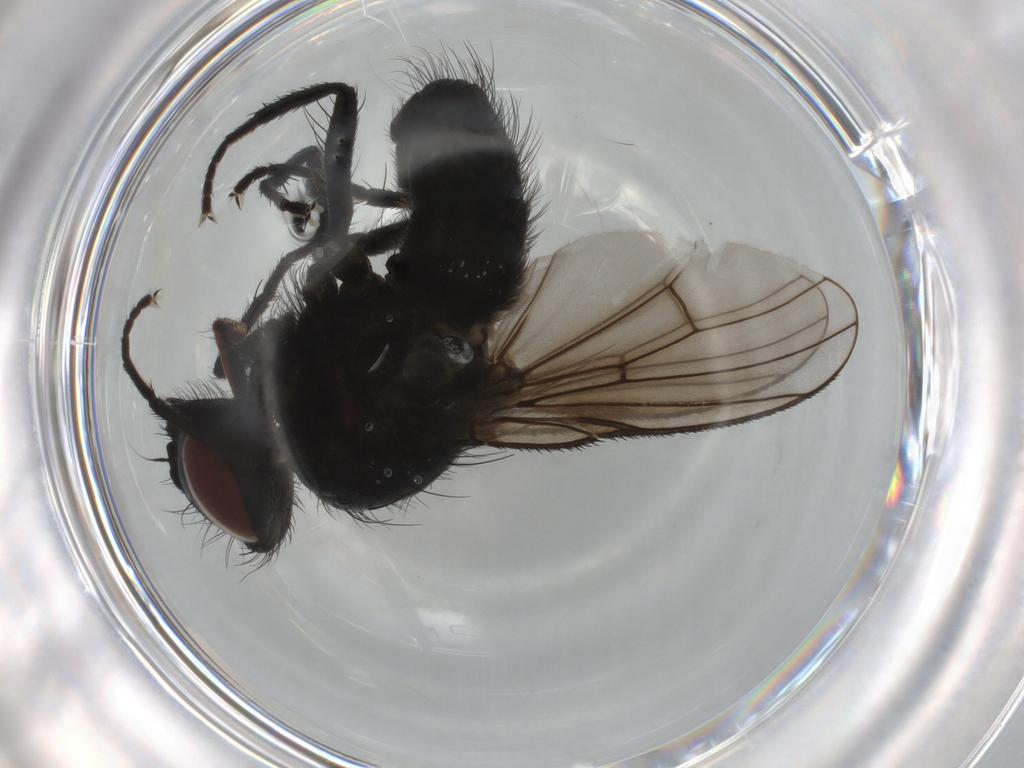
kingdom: Animalia
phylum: Arthropoda
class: Insecta
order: Diptera
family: Muscidae
